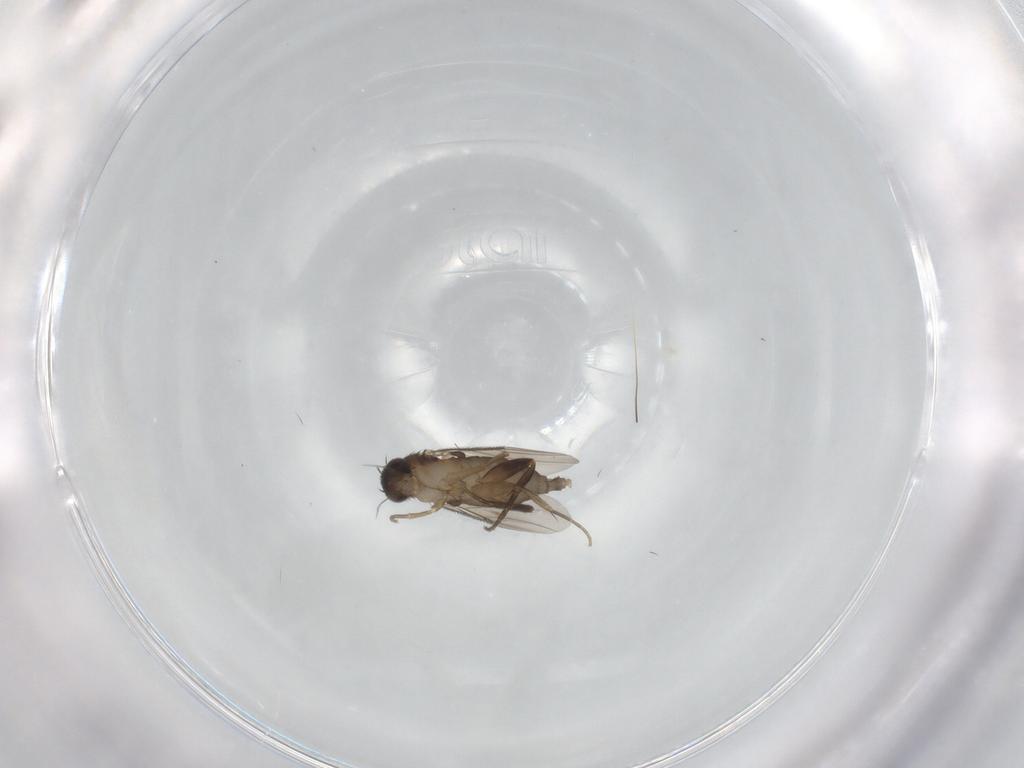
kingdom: Animalia
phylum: Arthropoda
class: Insecta
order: Diptera
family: Phoridae
